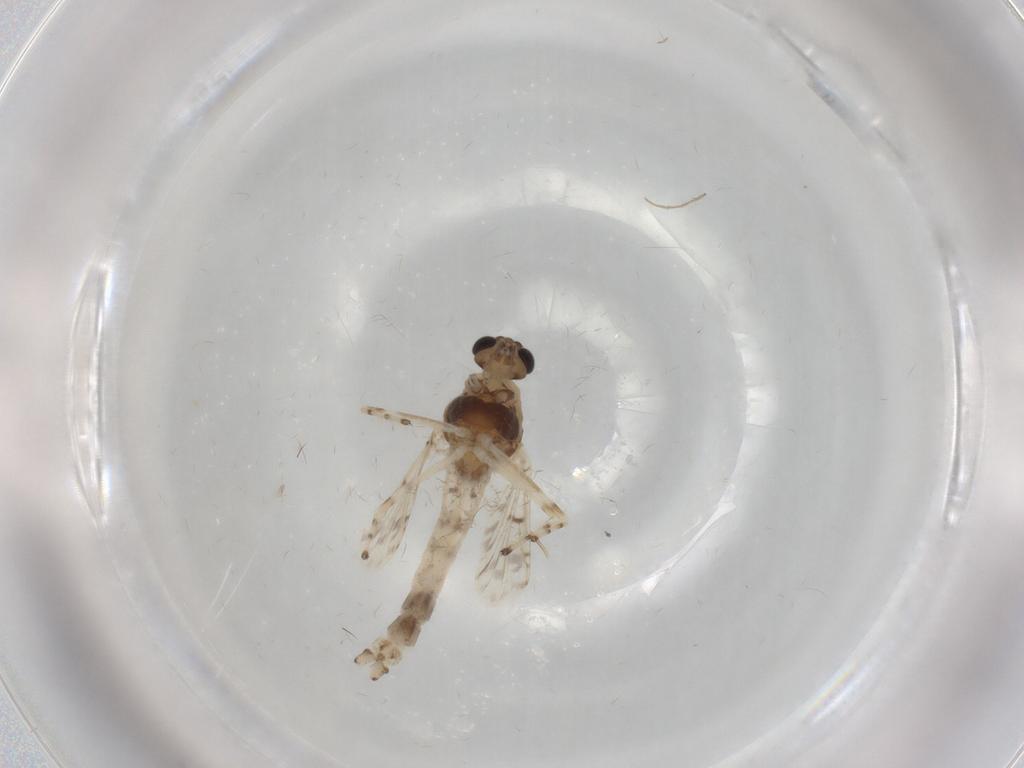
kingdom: Animalia
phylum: Arthropoda
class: Insecta
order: Diptera
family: Chironomidae
